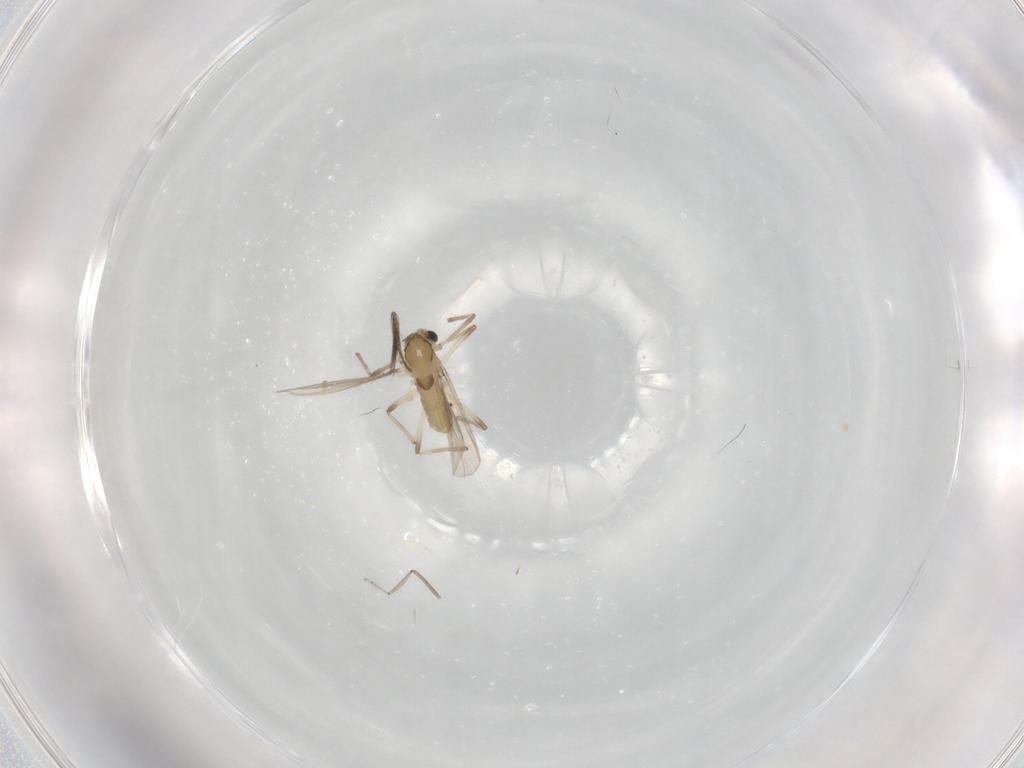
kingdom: Animalia
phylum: Arthropoda
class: Insecta
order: Diptera
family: Chironomidae
